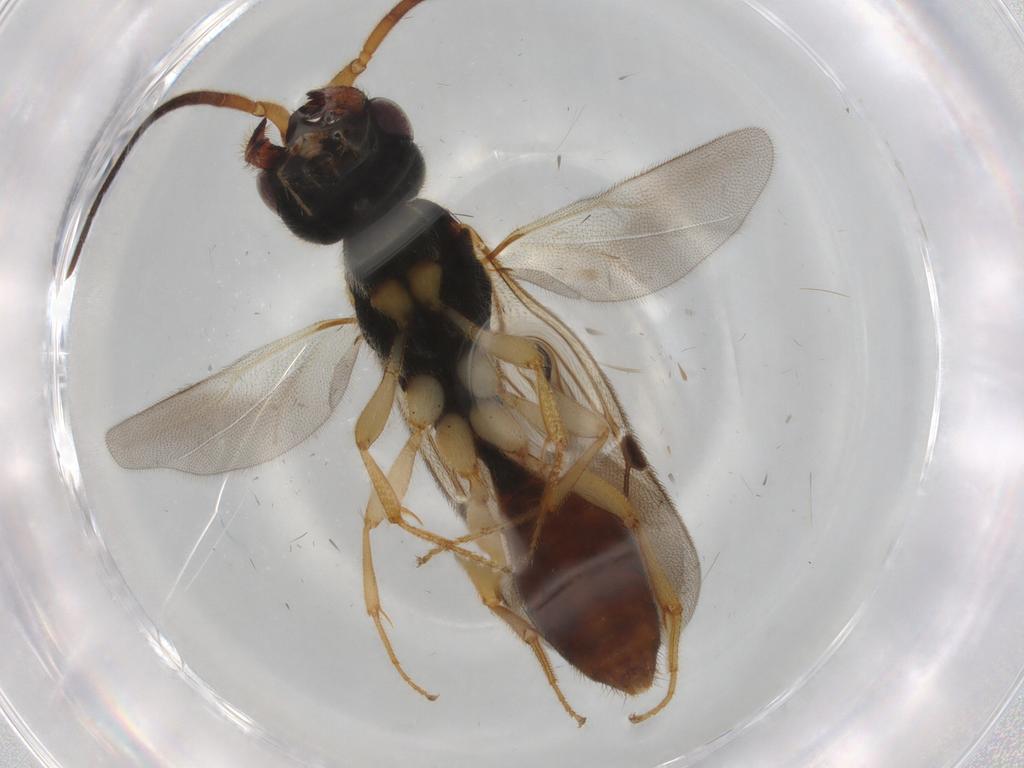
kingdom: Animalia
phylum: Arthropoda
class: Insecta
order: Hymenoptera
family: Bethylidae
